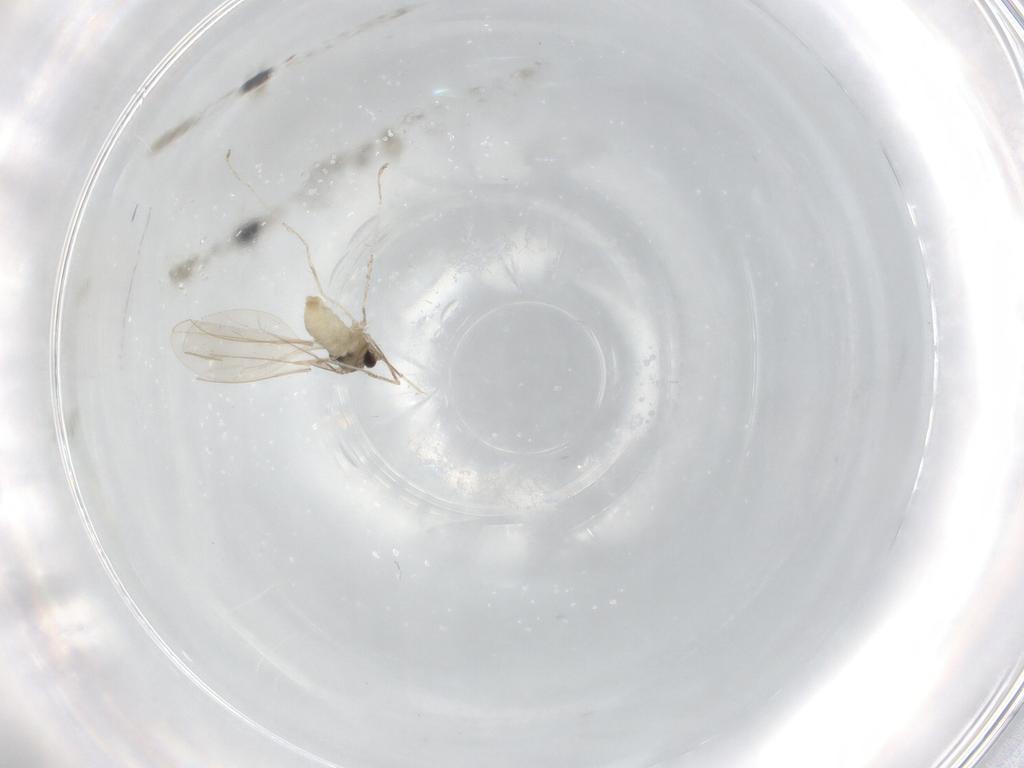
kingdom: Animalia
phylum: Arthropoda
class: Insecta
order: Diptera
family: Cecidomyiidae
